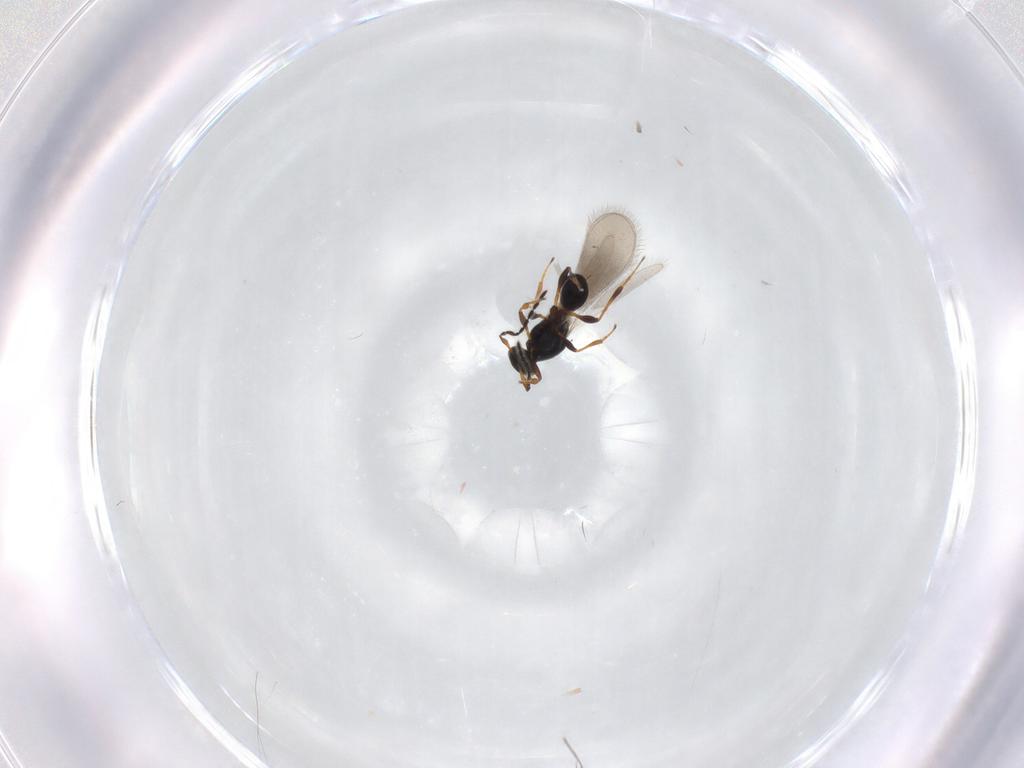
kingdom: Animalia
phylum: Arthropoda
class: Insecta
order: Hymenoptera
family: Platygastridae
